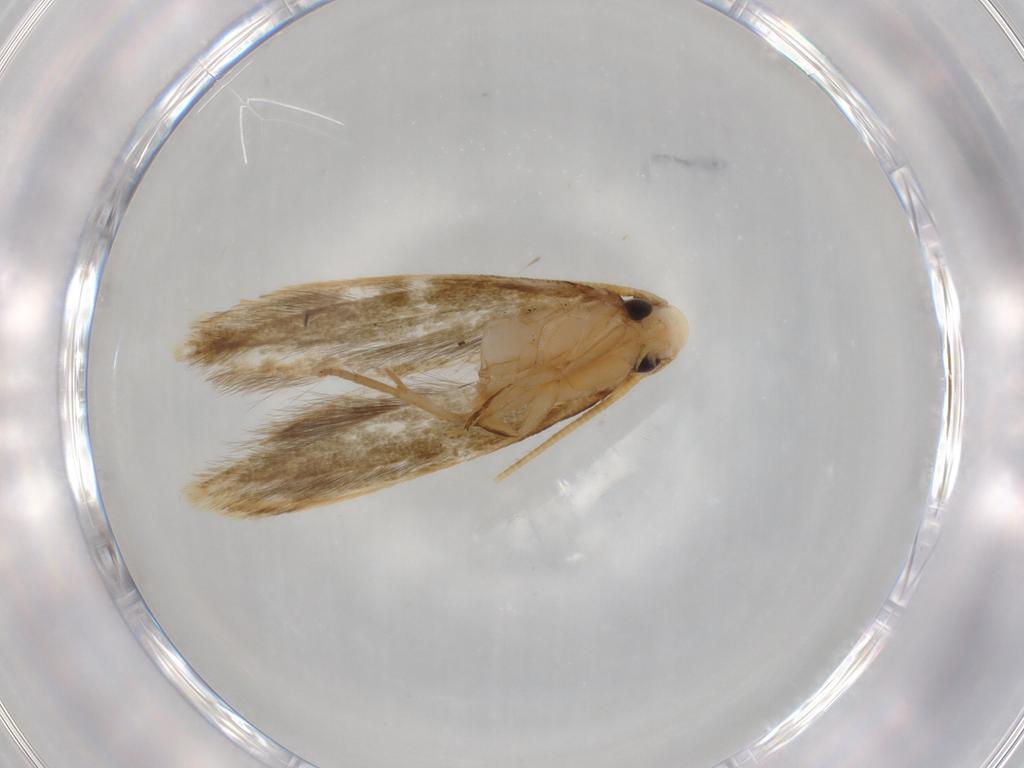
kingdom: Animalia
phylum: Arthropoda
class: Insecta
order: Lepidoptera
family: Tineidae
